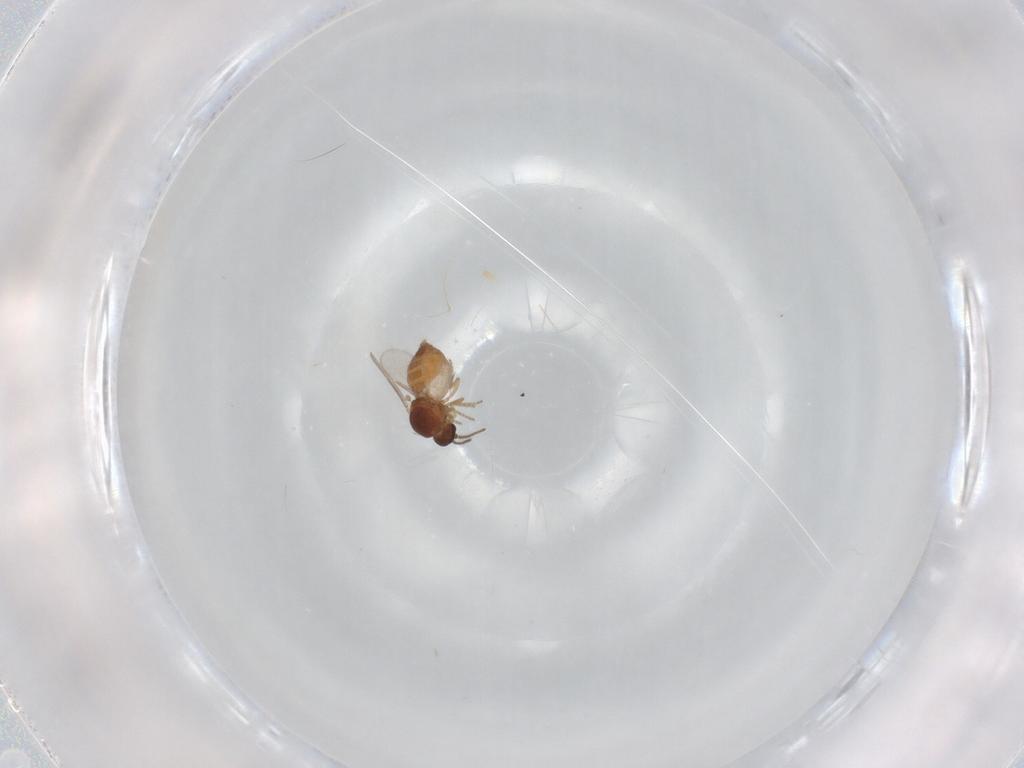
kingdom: Animalia
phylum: Arthropoda
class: Insecta
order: Diptera
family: Ceratopogonidae
